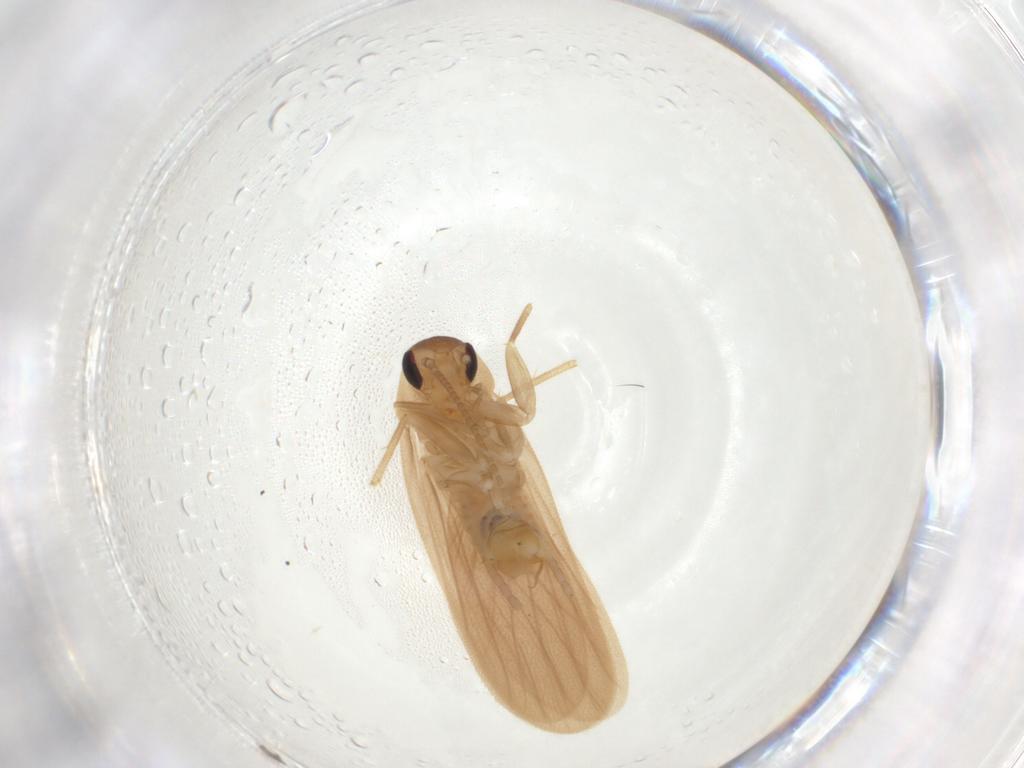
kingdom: Animalia
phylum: Arthropoda
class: Insecta
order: Blattodea
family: Nocticolidae
